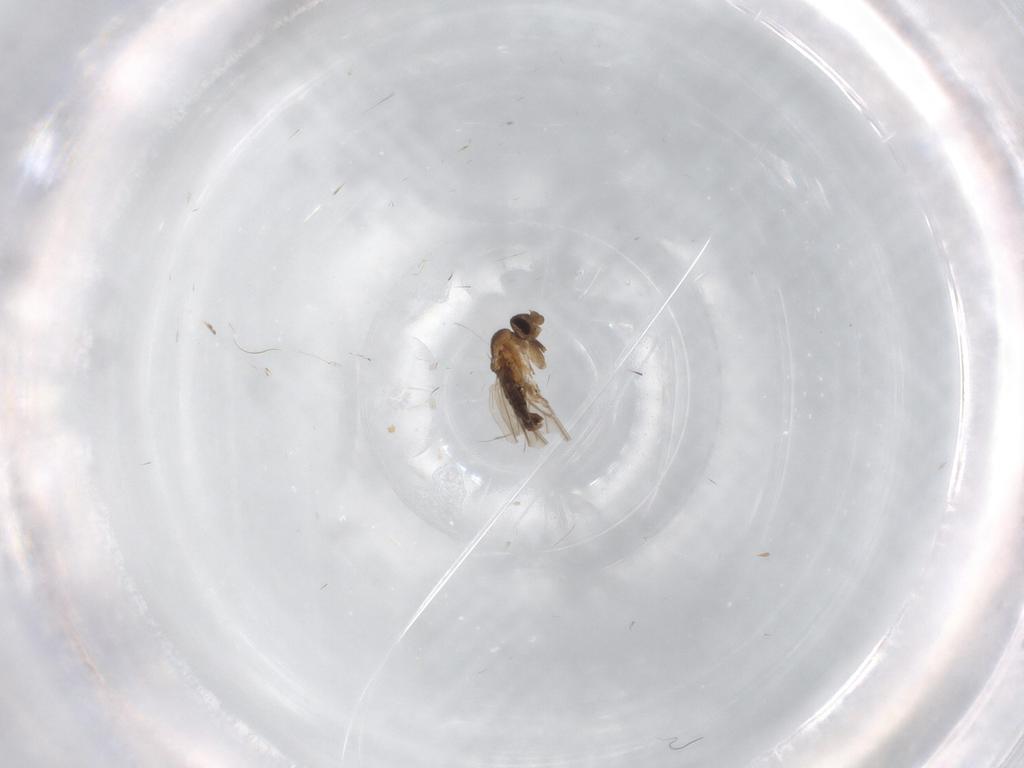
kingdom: Animalia
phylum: Arthropoda
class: Insecta
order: Diptera
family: Phoridae
